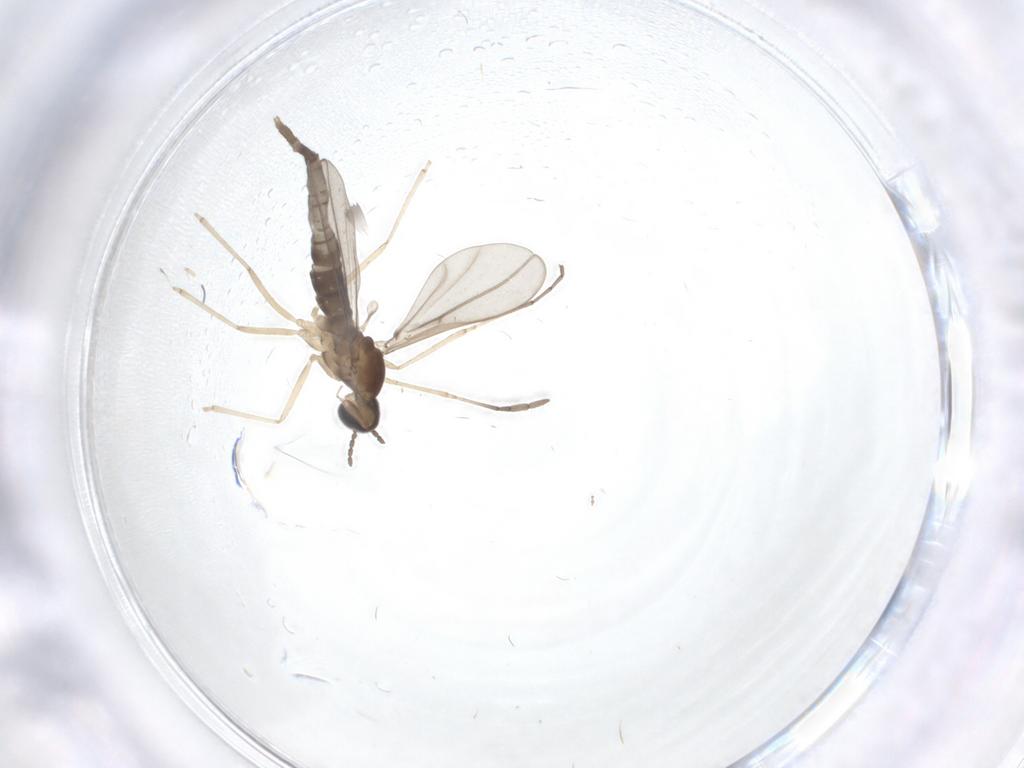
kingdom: Animalia
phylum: Arthropoda
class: Insecta
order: Diptera
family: Cecidomyiidae
